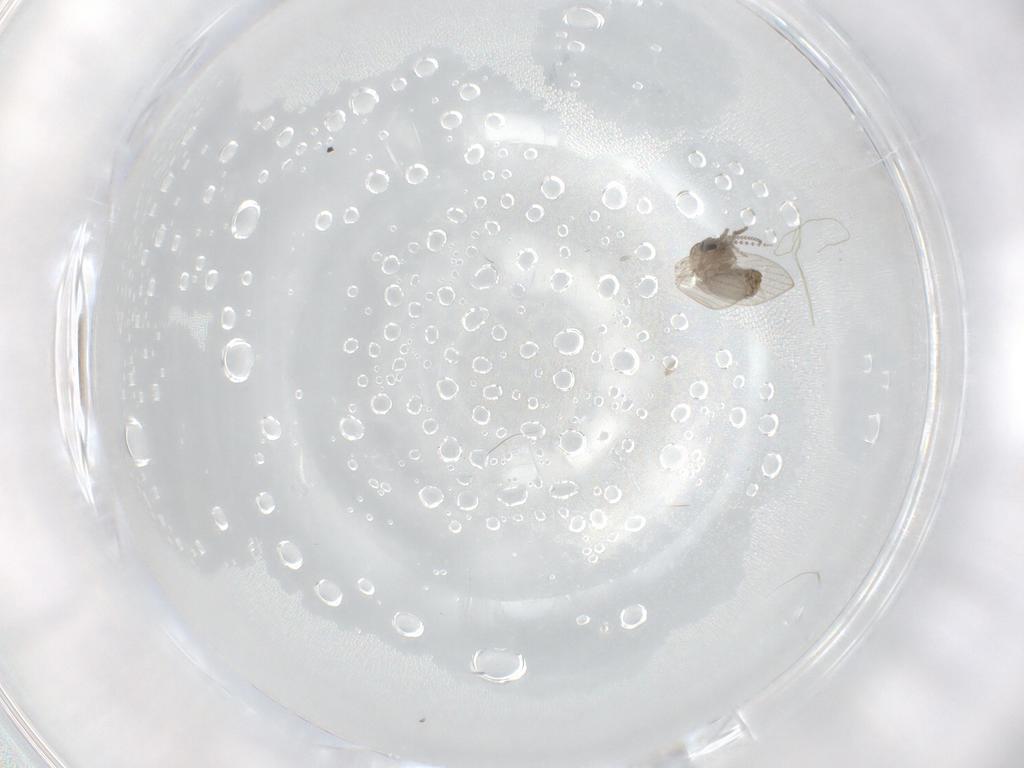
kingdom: Animalia
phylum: Arthropoda
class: Insecta
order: Diptera
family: Psychodidae
